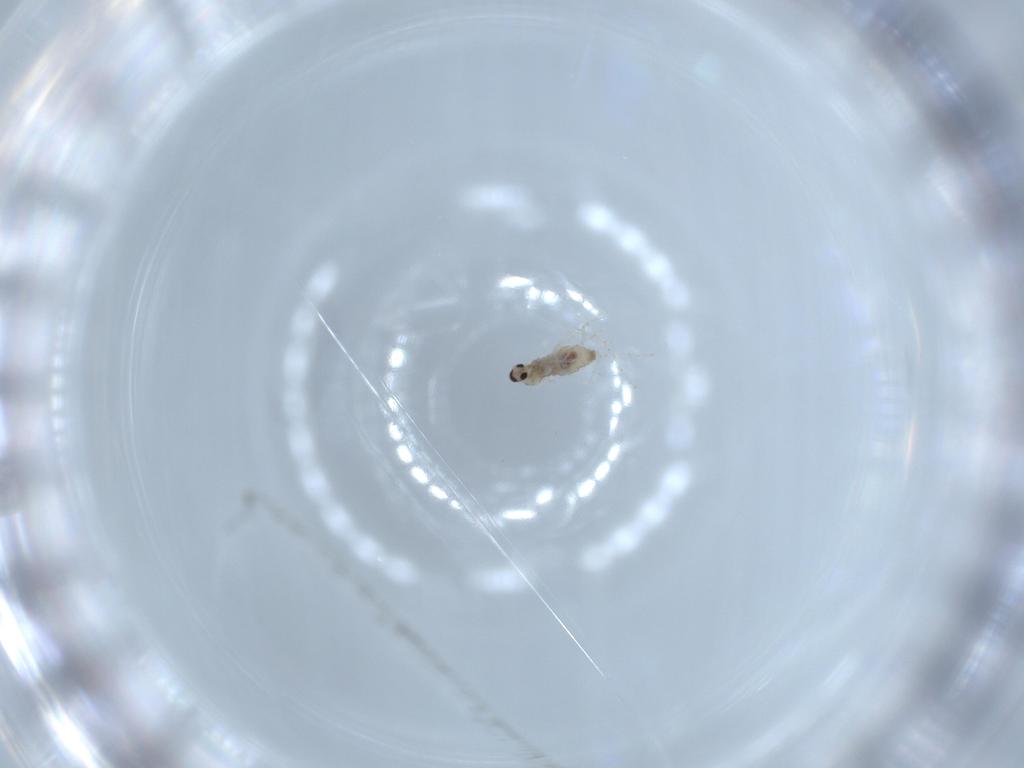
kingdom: Animalia
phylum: Arthropoda
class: Insecta
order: Diptera
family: Cecidomyiidae
